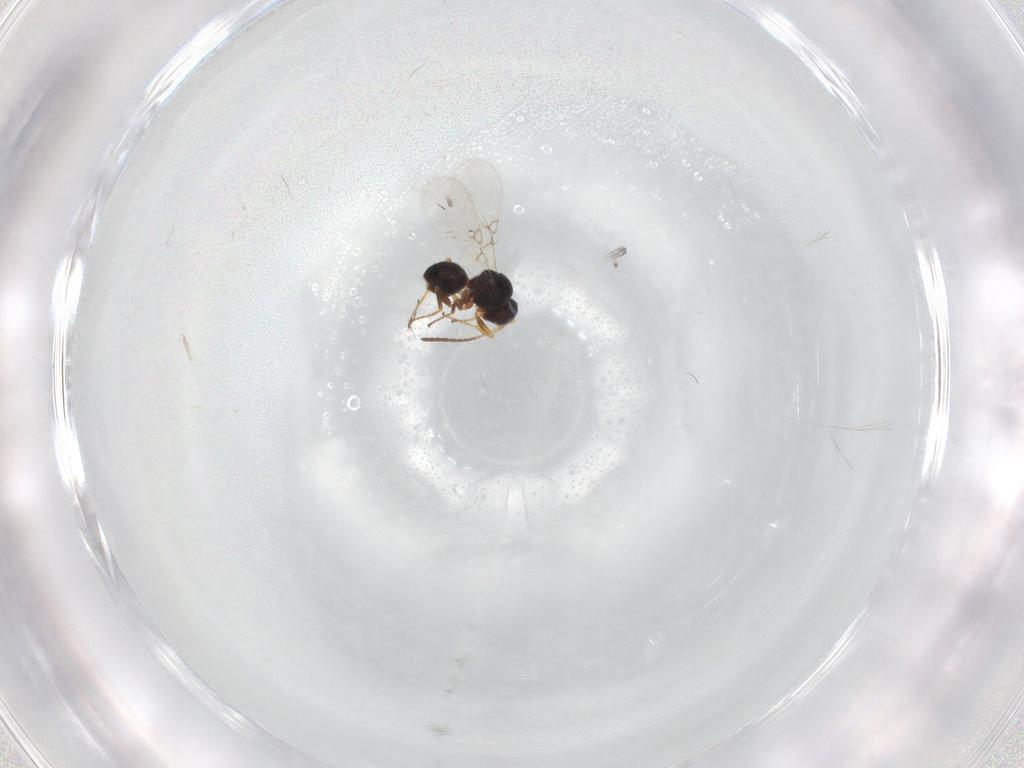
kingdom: Animalia
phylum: Arthropoda
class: Insecta
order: Hymenoptera
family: Figitidae
